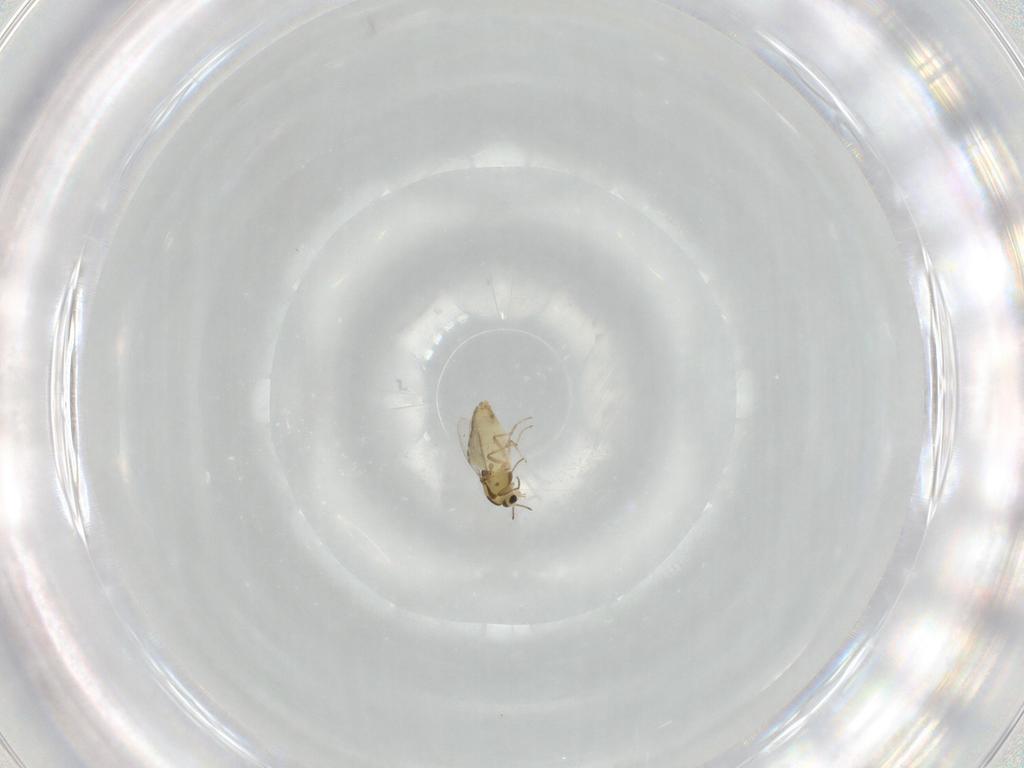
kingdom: Animalia
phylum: Arthropoda
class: Insecta
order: Diptera
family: Chironomidae
